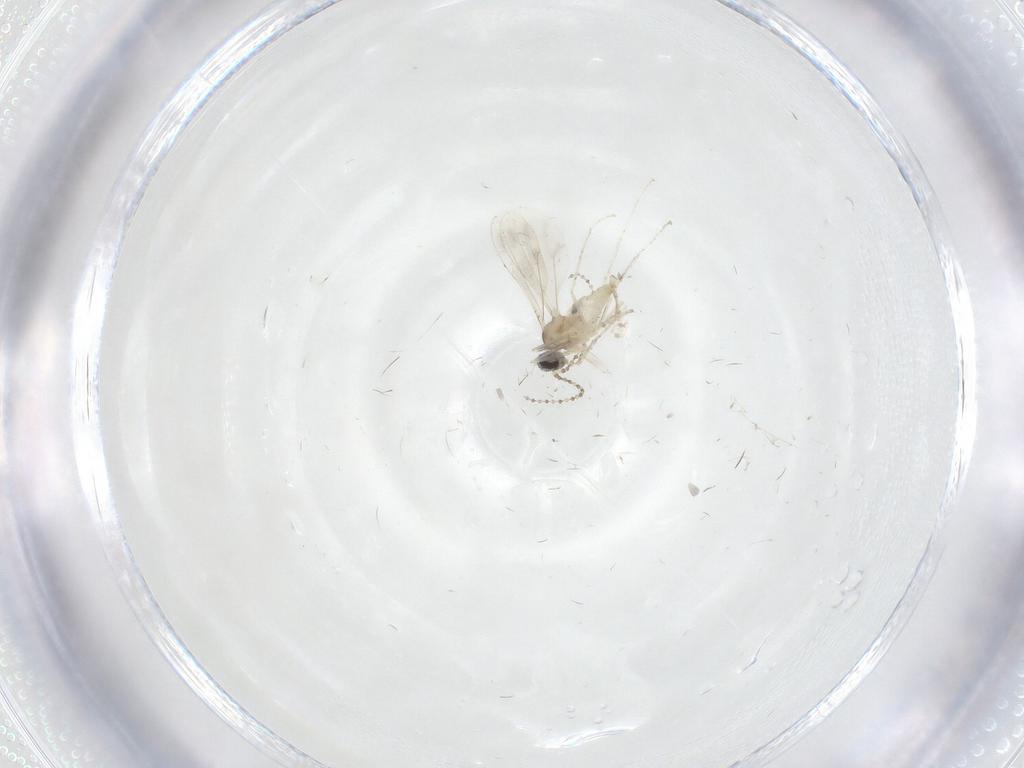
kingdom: Animalia
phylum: Arthropoda
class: Insecta
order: Diptera
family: Cecidomyiidae
